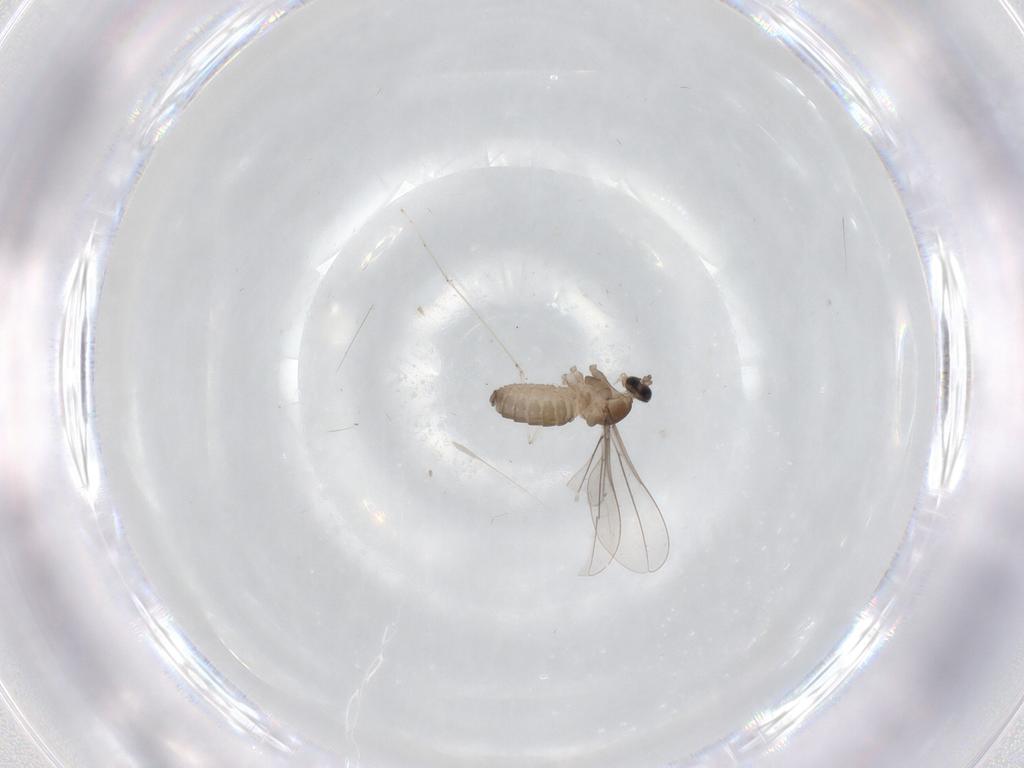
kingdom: Animalia
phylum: Arthropoda
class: Insecta
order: Diptera
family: Cecidomyiidae
